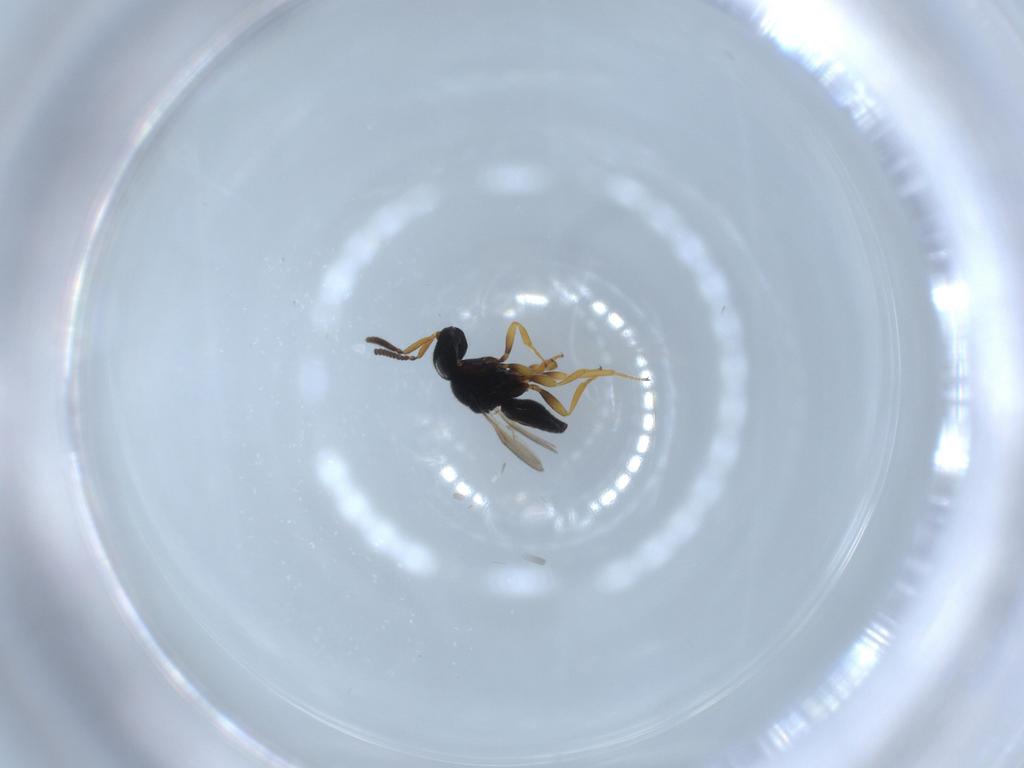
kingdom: Animalia
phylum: Arthropoda
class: Insecta
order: Hymenoptera
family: Scelionidae
